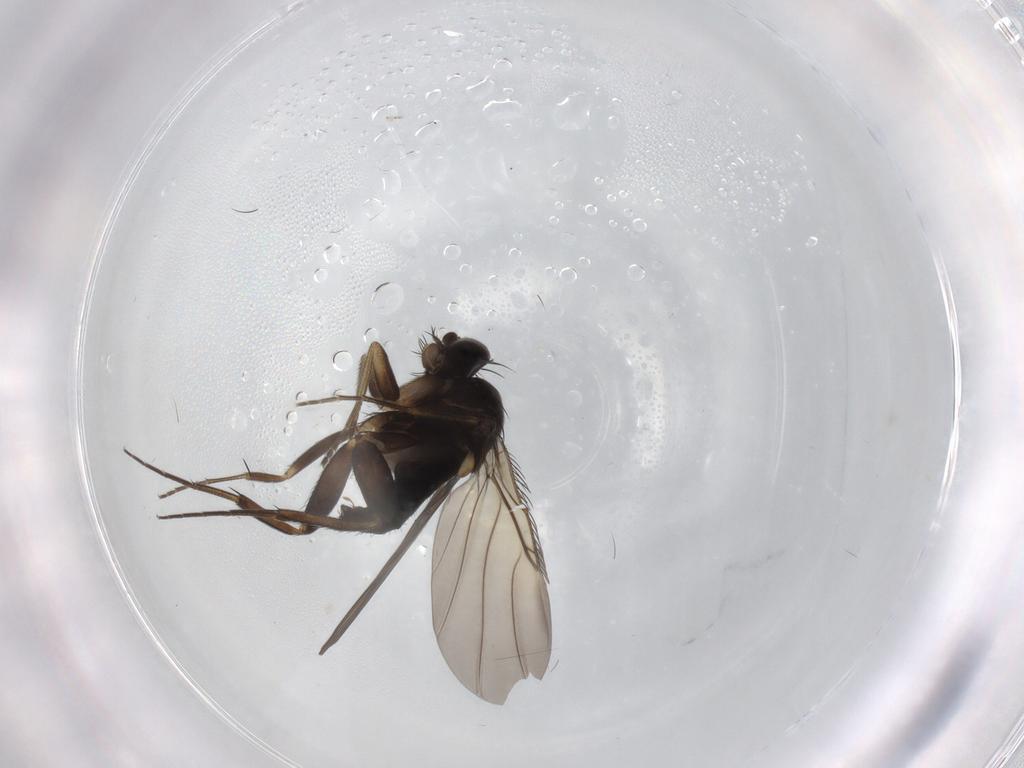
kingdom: Animalia
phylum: Arthropoda
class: Insecta
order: Diptera
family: Phoridae
